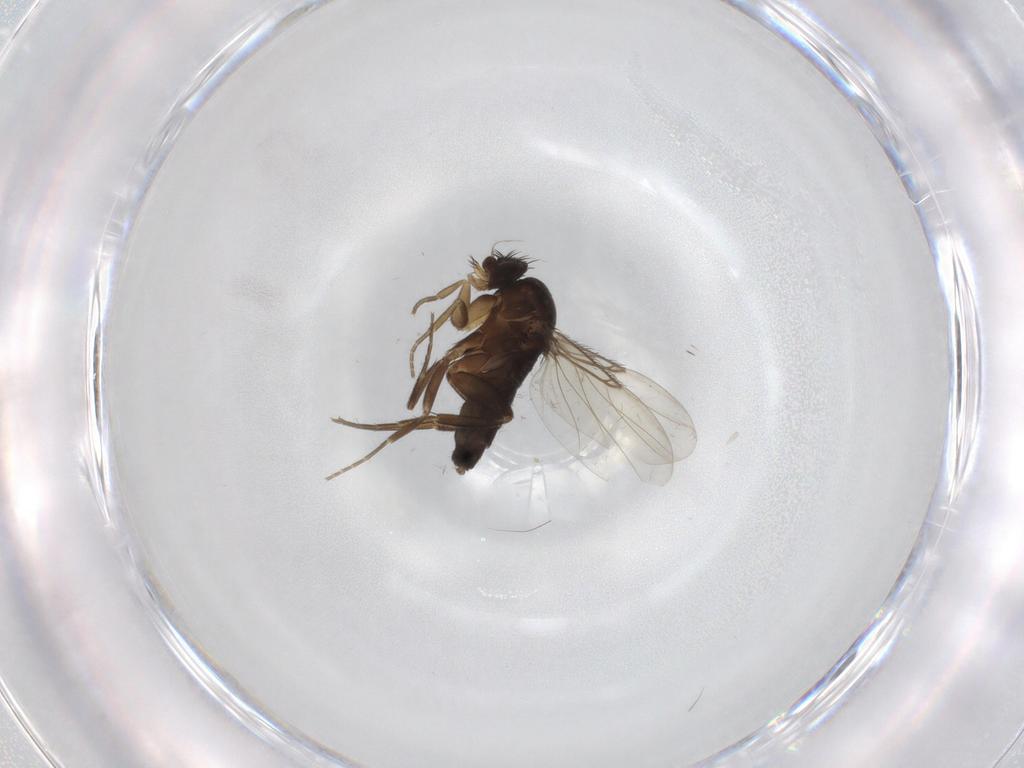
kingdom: Animalia
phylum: Arthropoda
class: Insecta
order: Diptera
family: Phoridae
